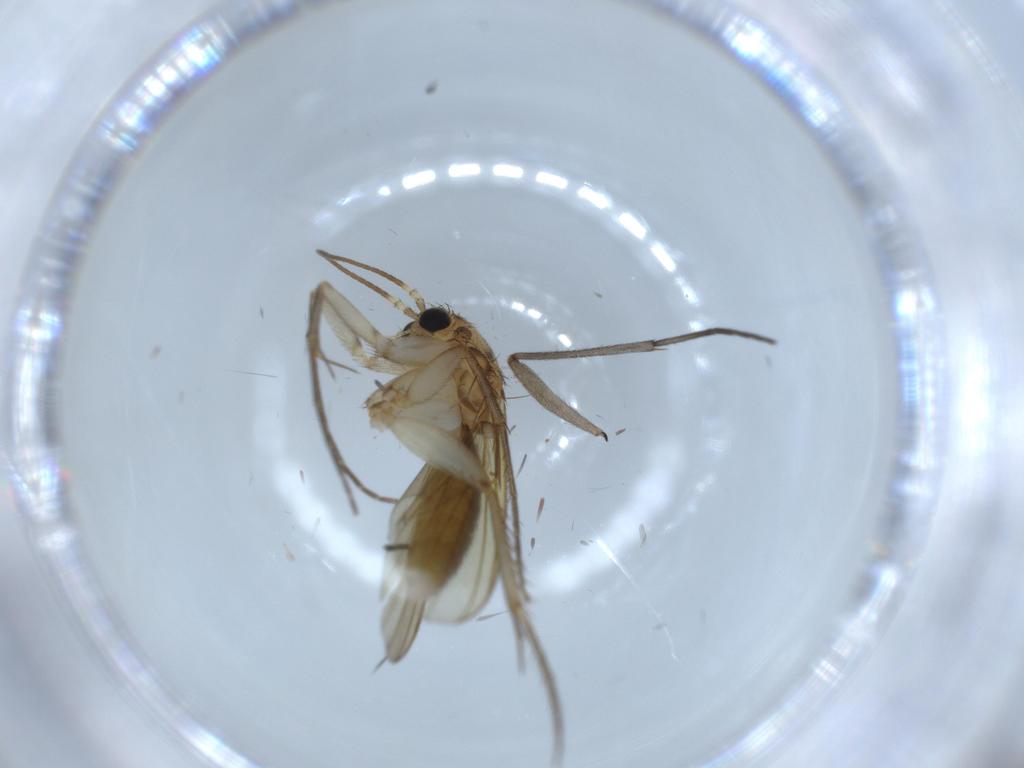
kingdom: Animalia
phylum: Arthropoda
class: Insecta
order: Diptera
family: Mycetophilidae
